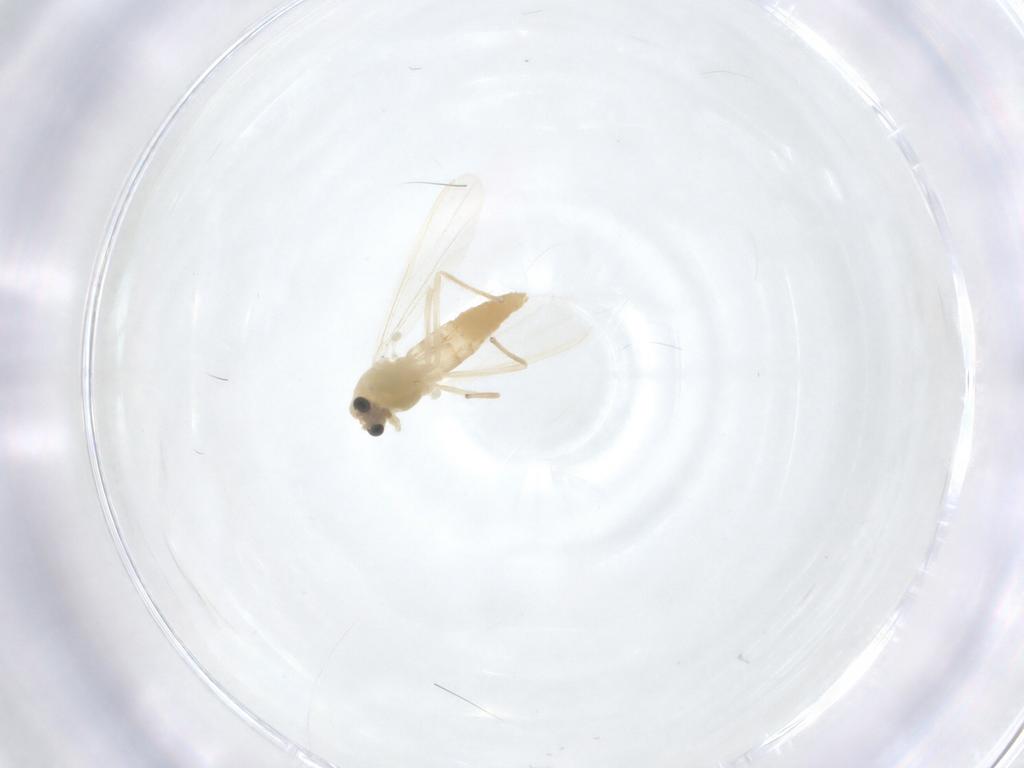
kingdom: Animalia
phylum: Arthropoda
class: Insecta
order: Diptera
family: Chironomidae
